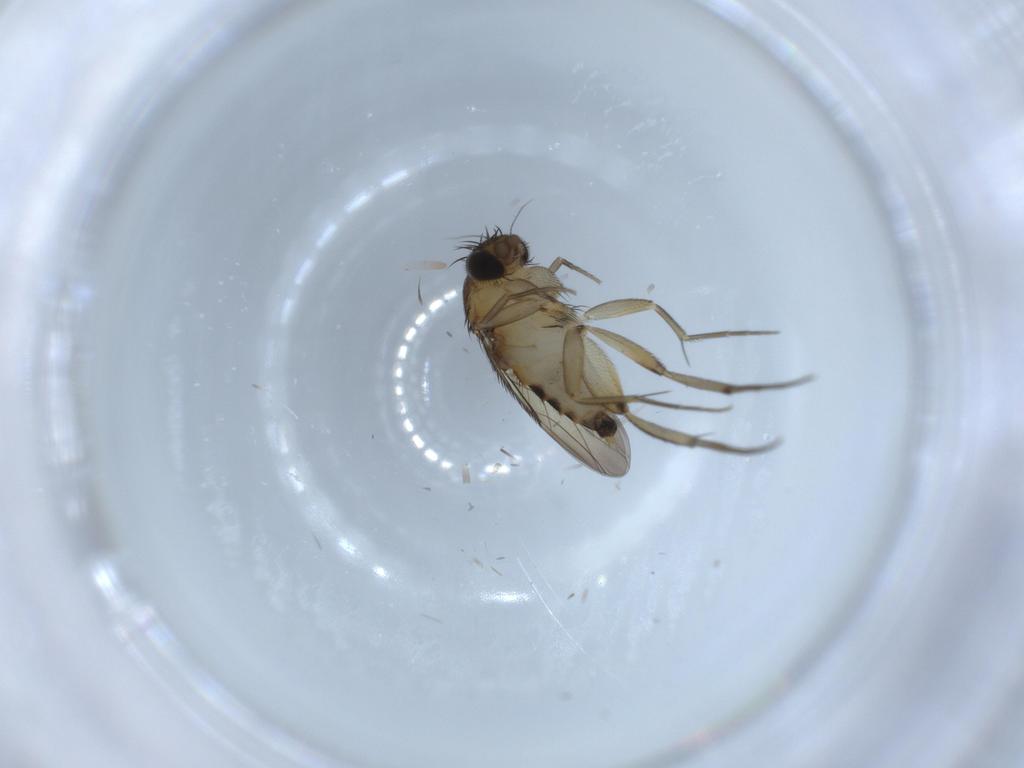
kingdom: Animalia
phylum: Arthropoda
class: Insecta
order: Diptera
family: Phoridae
